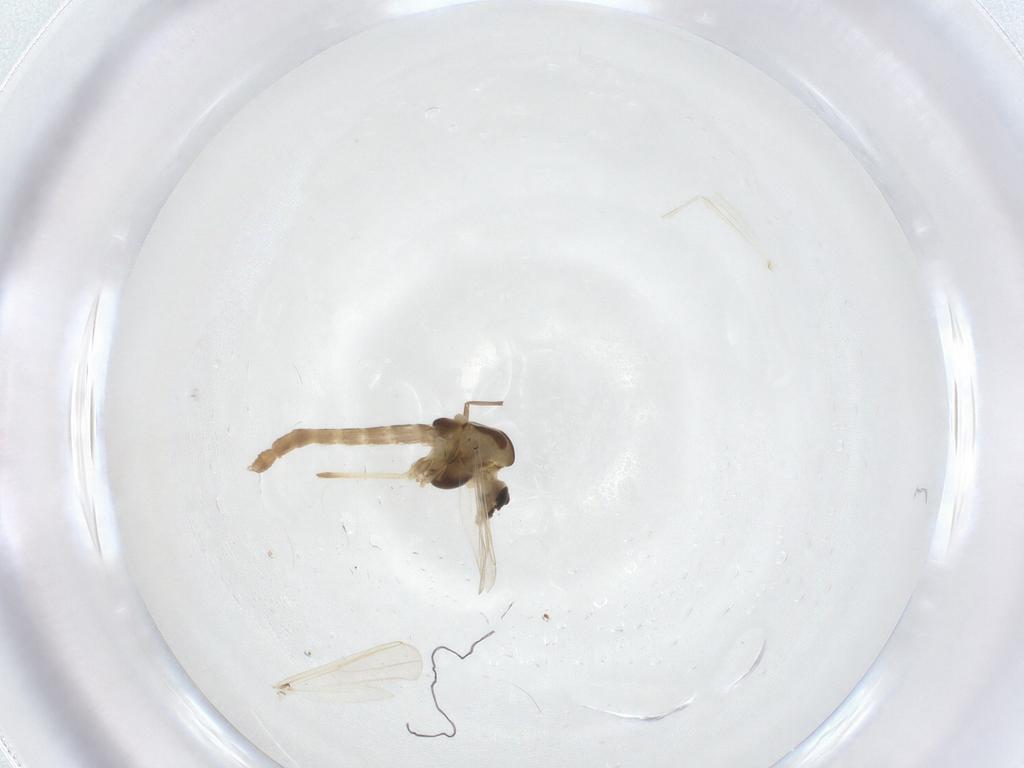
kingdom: Animalia
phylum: Arthropoda
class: Insecta
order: Diptera
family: Chironomidae
